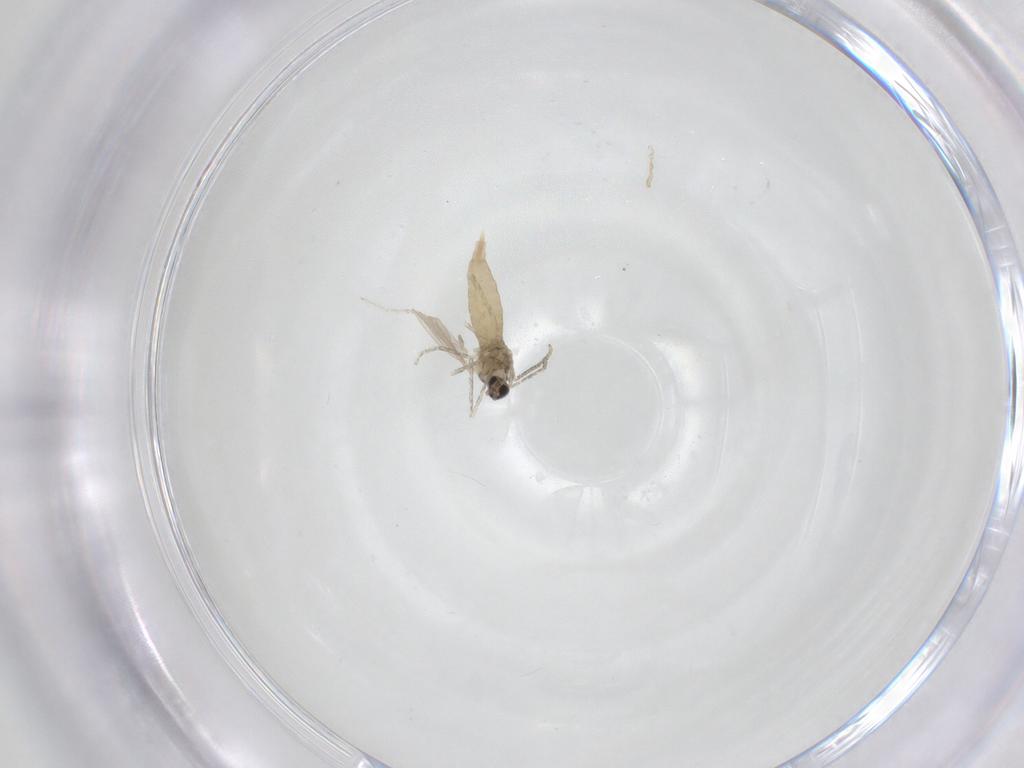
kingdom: Animalia
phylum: Arthropoda
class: Insecta
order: Diptera
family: Cecidomyiidae
